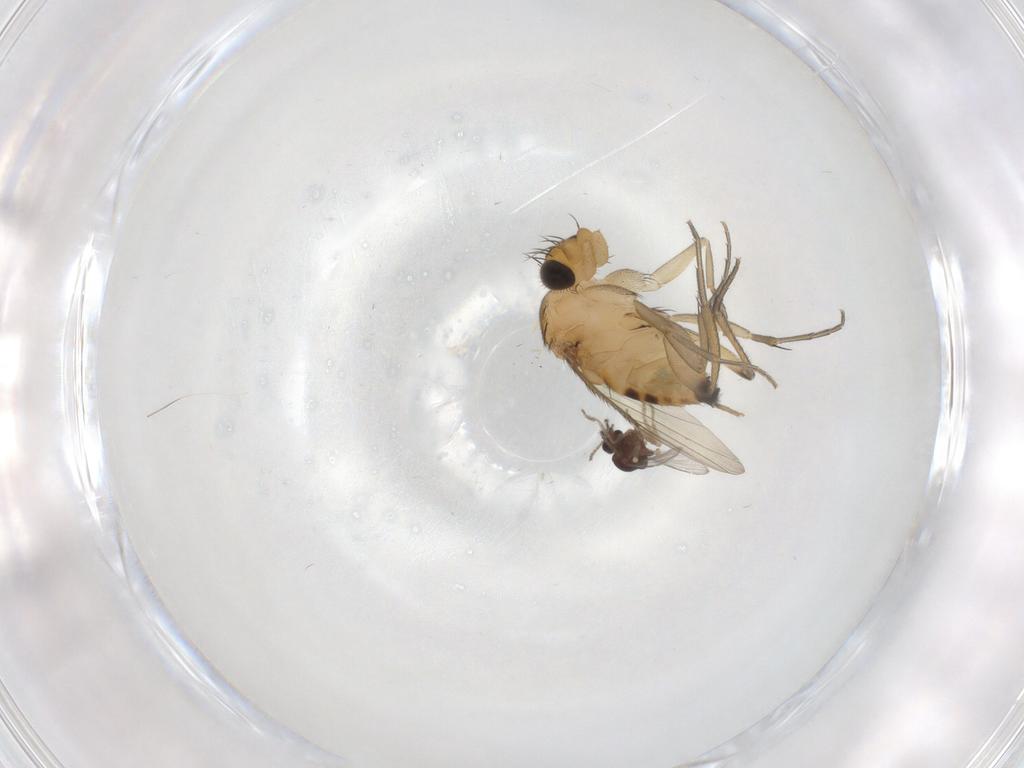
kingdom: Animalia
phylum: Arthropoda
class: Insecta
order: Diptera
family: Phoridae
